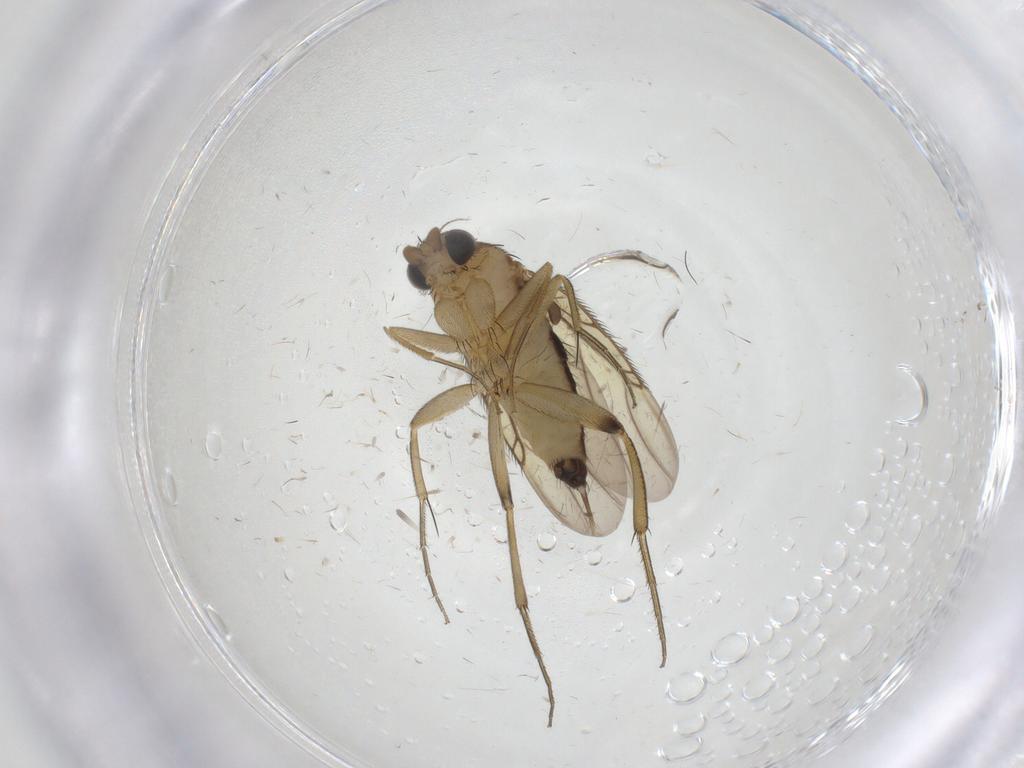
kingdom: Animalia
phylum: Arthropoda
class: Insecta
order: Diptera
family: Phoridae
